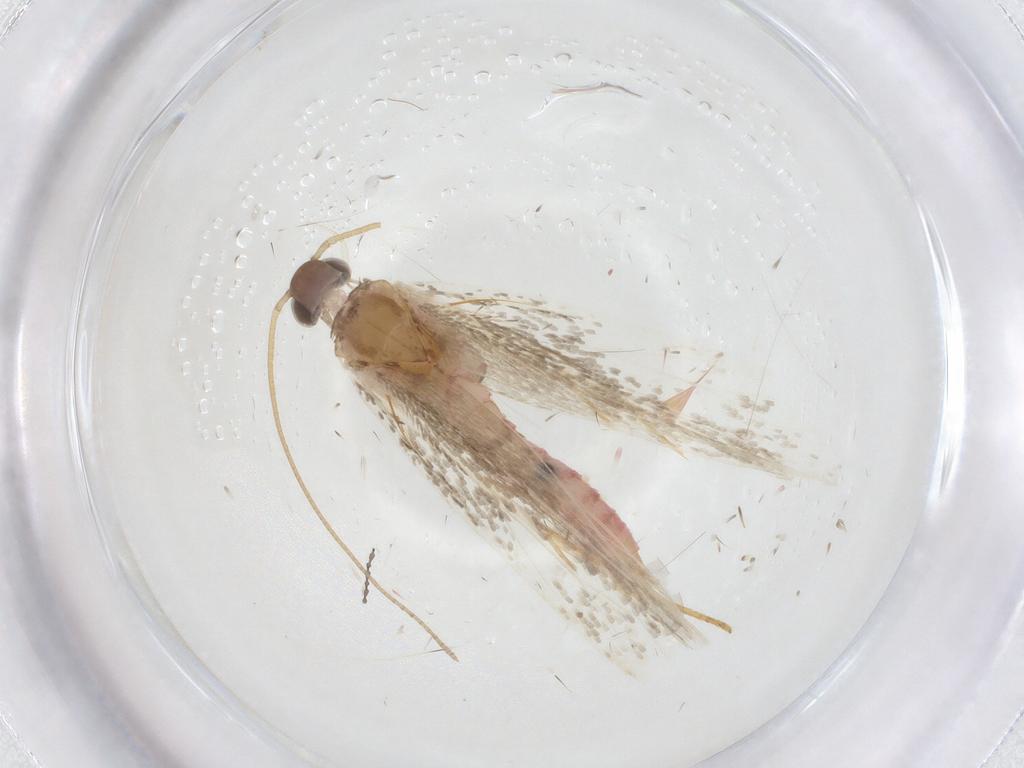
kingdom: Animalia
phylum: Arthropoda
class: Insecta
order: Lepidoptera
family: Crambidae
